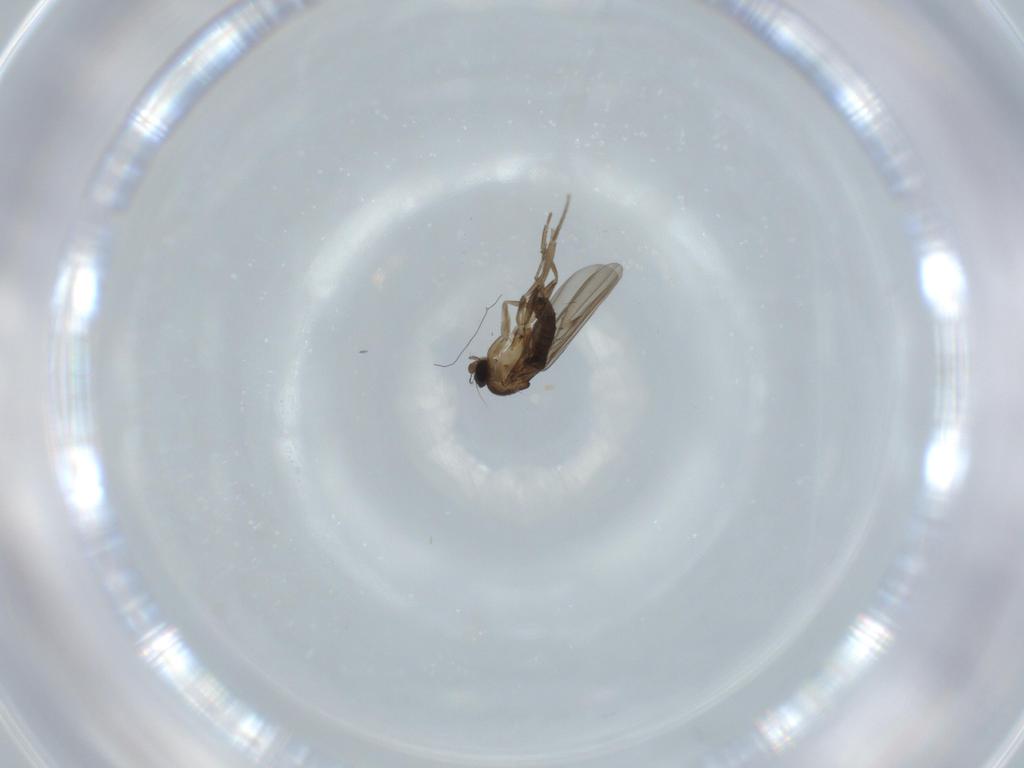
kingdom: Animalia
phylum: Arthropoda
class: Insecta
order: Diptera
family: Cecidomyiidae
